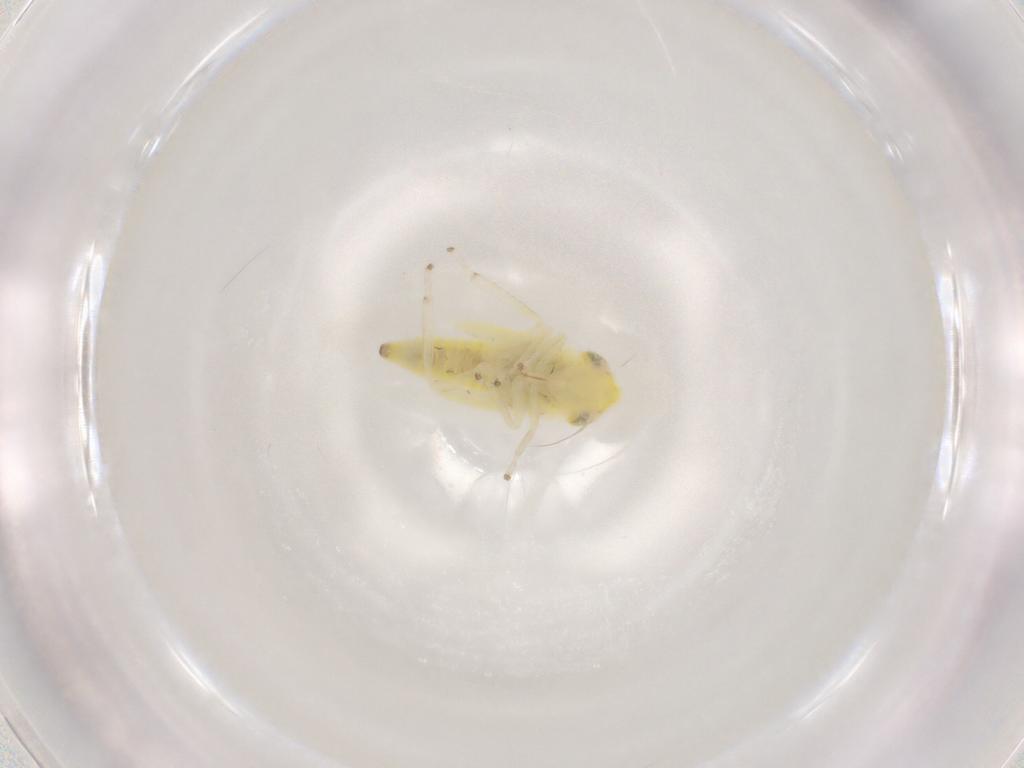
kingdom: Animalia
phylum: Arthropoda
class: Insecta
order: Hemiptera
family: Cicadellidae
